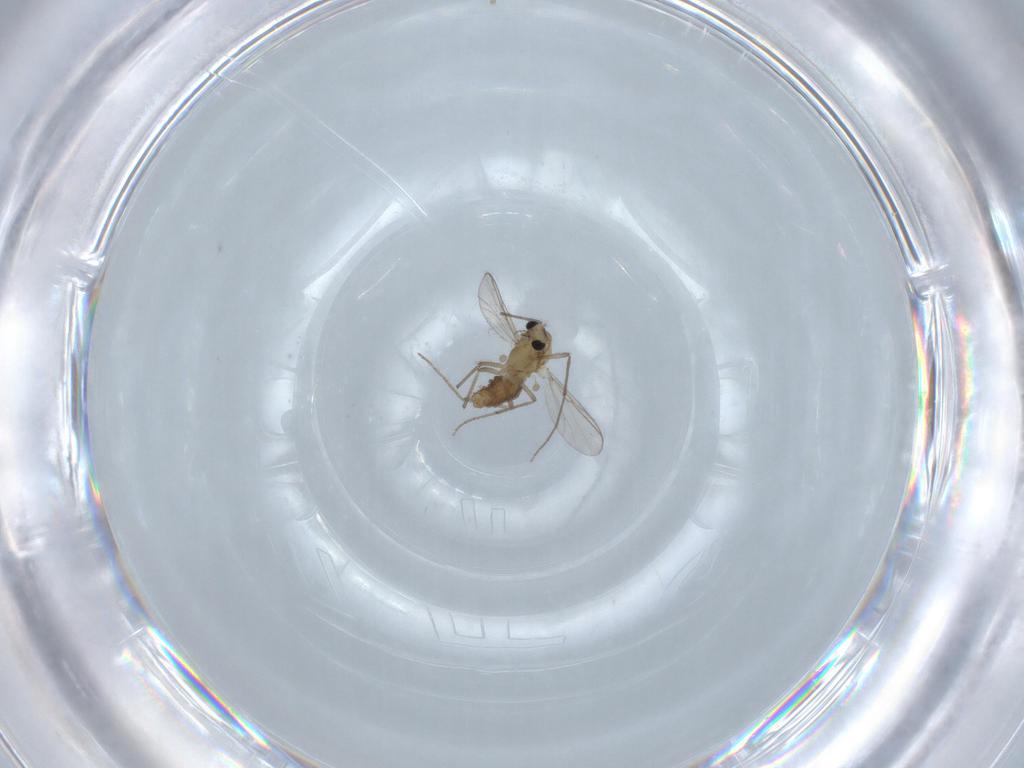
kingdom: Animalia
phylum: Arthropoda
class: Insecta
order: Diptera
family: Chironomidae
